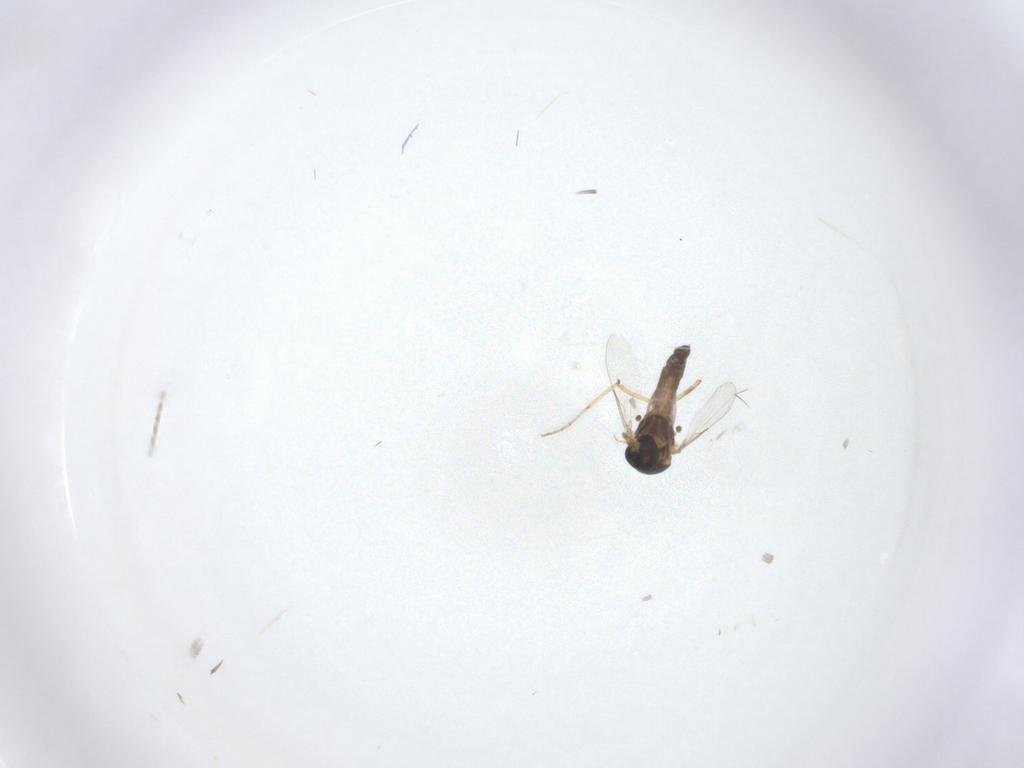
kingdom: Animalia
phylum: Arthropoda
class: Insecta
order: Diptera
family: Ceratopogonidae
